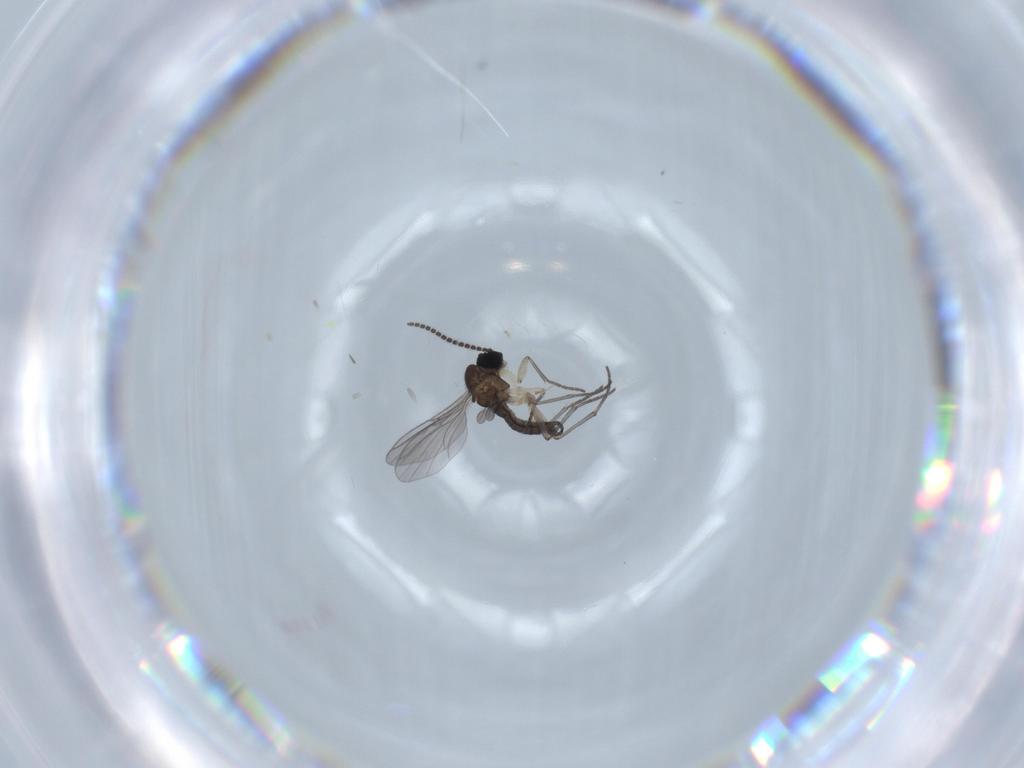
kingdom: Animalia
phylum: Arthropoda
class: Insecta
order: Diptera
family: Sciaridae
